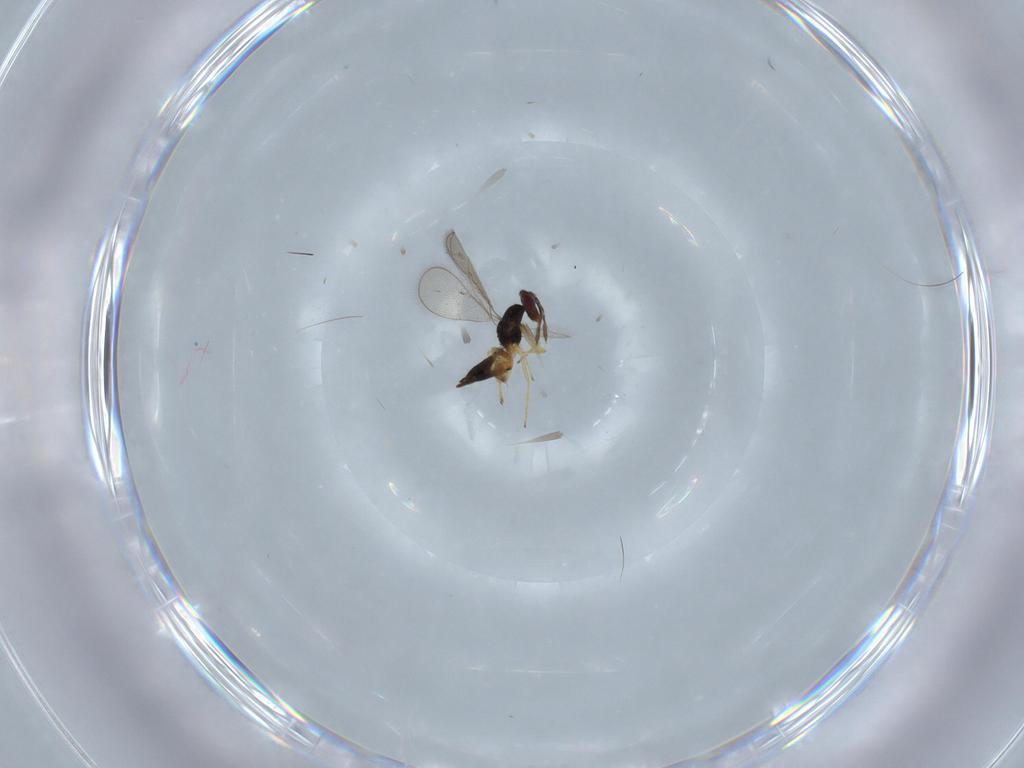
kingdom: Animalia
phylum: Arthropoda
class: Insecta
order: Hymenoptera
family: Eulophidae
